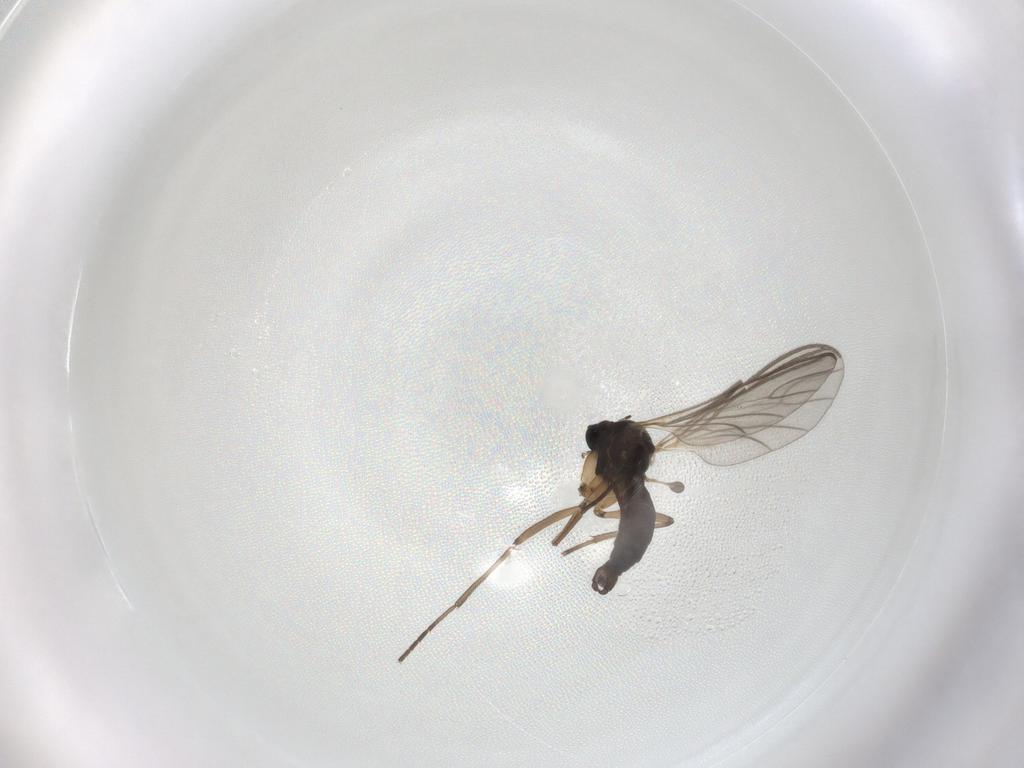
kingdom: Animalia
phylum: Arthropoda
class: Insecta
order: Diptera
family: Sciaridae
